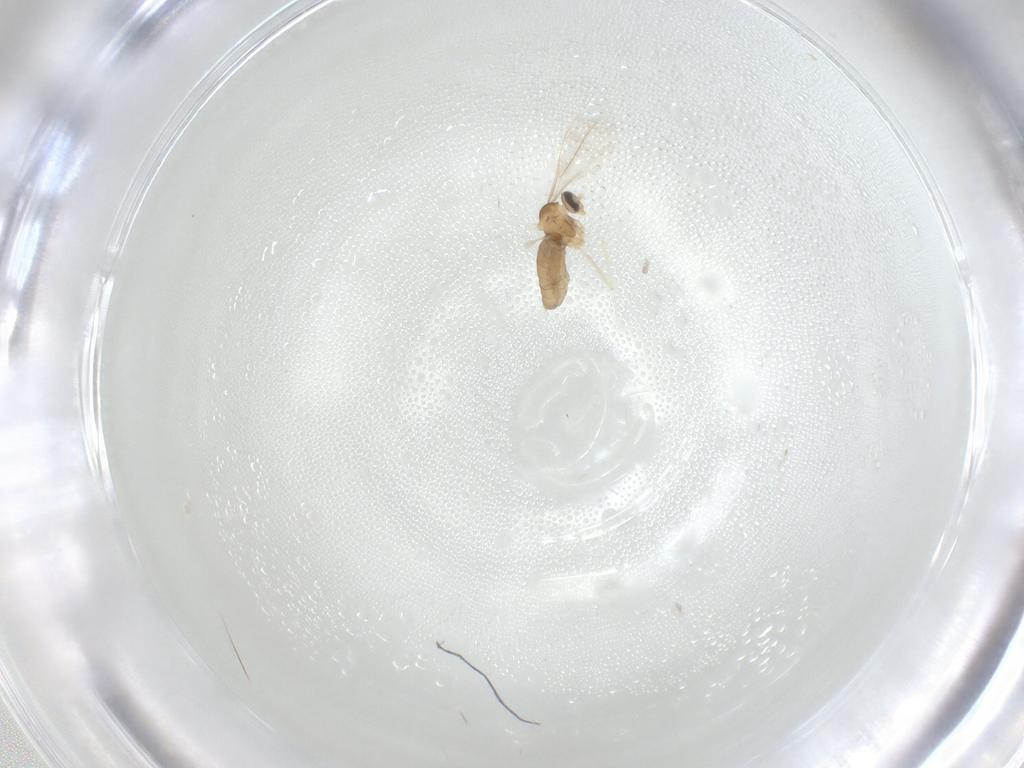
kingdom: Animalia
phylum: Arthropoda
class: Insecta
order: Diptera
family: Cecidomyiidae
